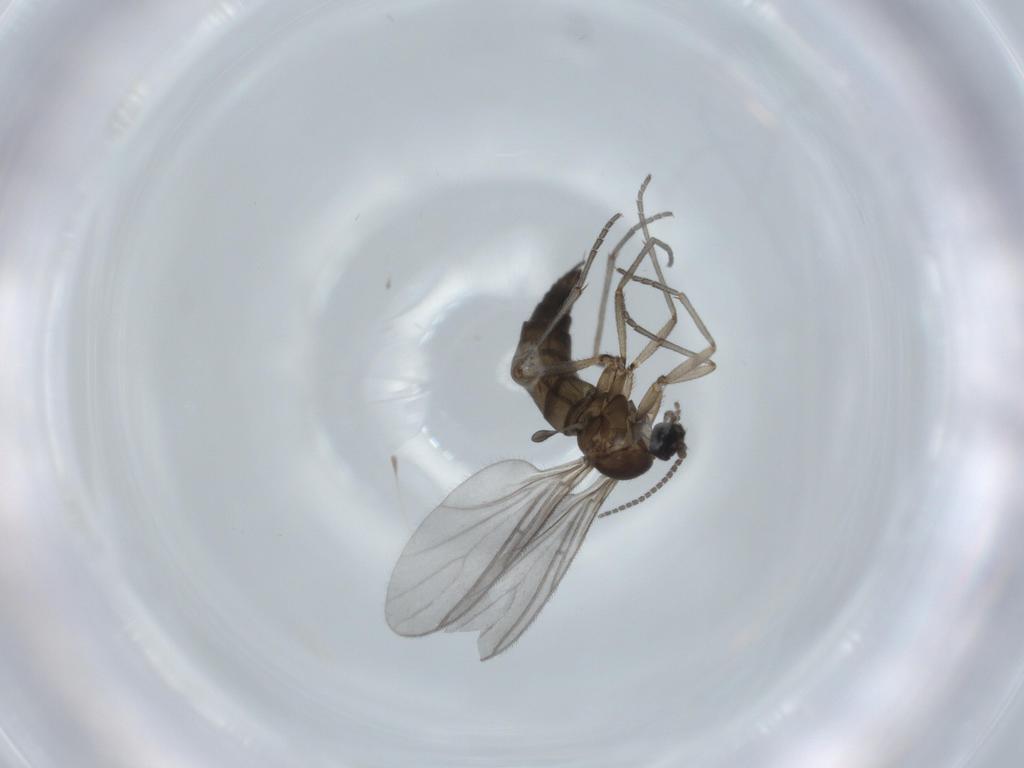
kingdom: Animalia
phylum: Arthropoda
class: Insecta
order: Diptera
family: Sciaridae
